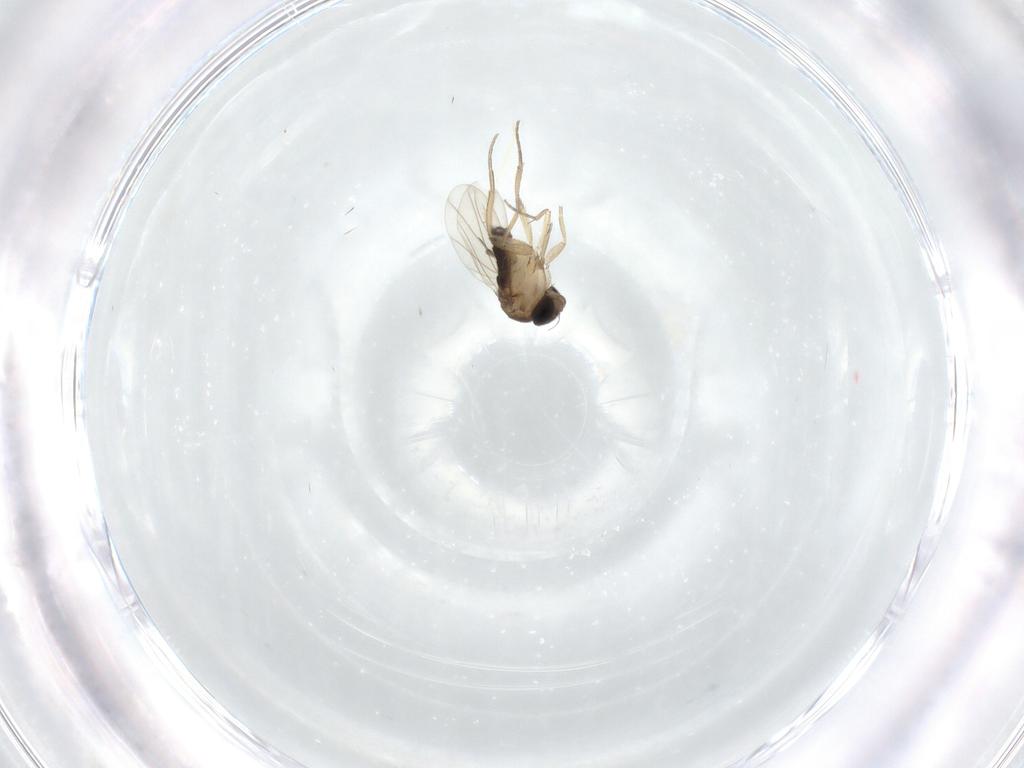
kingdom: Animalia
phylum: Arthropoda
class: Insecta
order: Diptera
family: Phoridae
